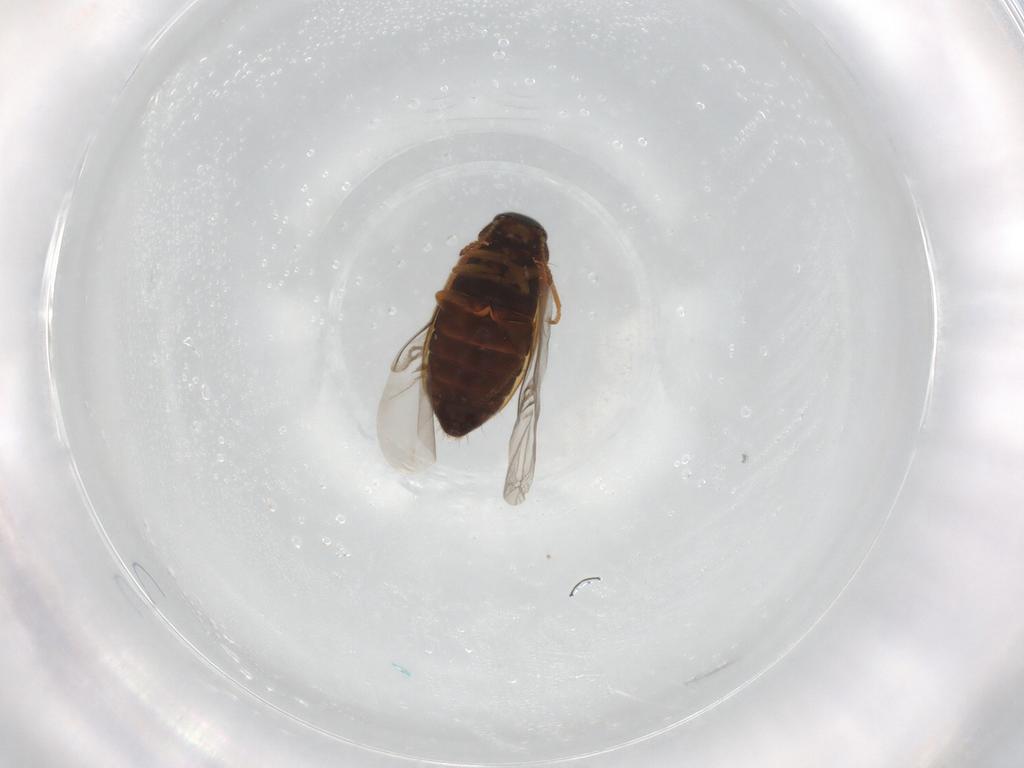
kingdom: Animalia
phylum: Arthropoda
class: Insecta
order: Coleoptera
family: Melyridae
